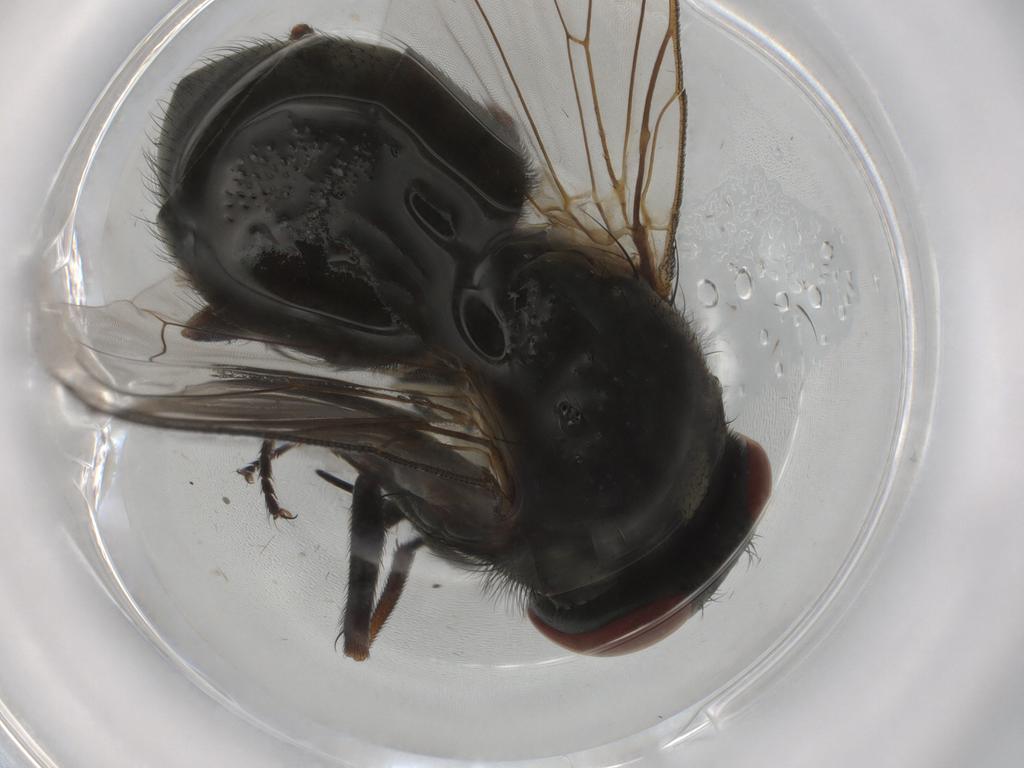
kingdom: Animalia
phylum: Arthropoda
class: Insecta
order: Diptera
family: Muscidae
